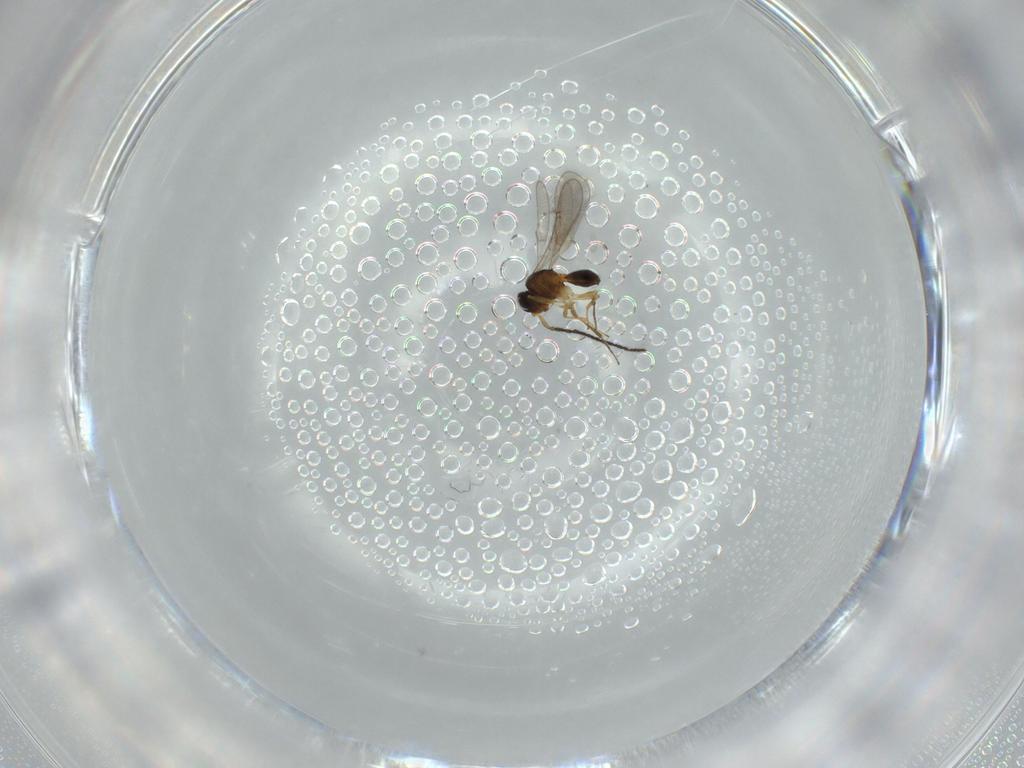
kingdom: Animalia
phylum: Arthropoda
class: Insecta
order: Hymenoptera
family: Scelionidae
